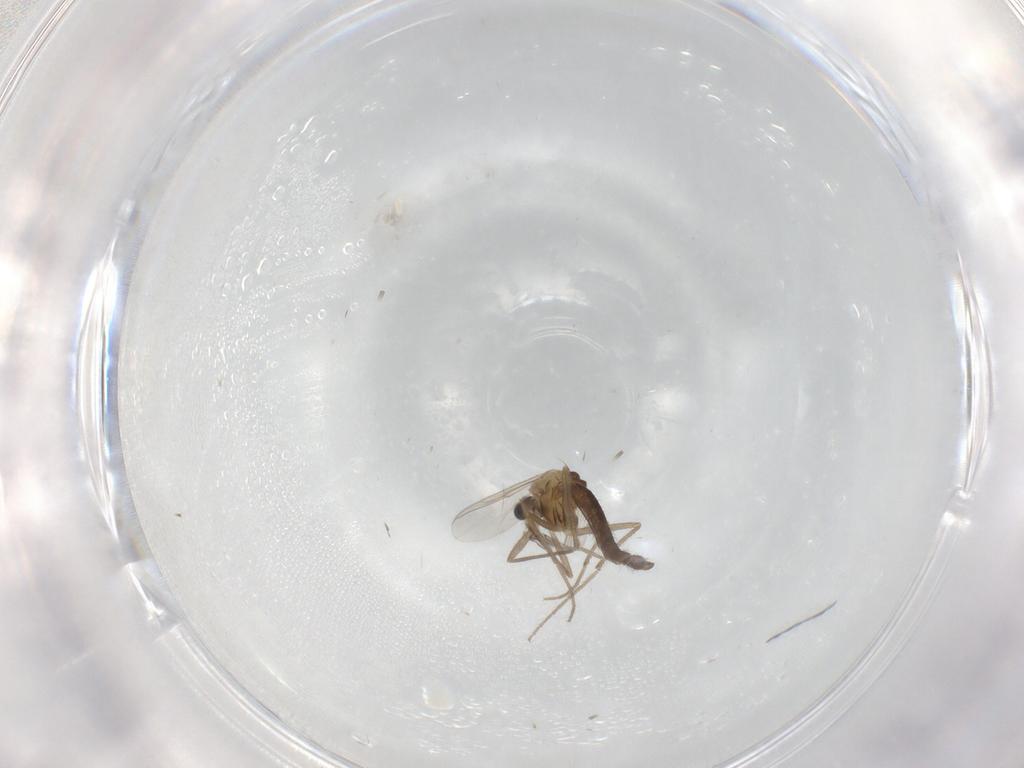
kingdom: Animalia
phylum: Arthropoda
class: Insecta
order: Diptera
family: Chironomidae
